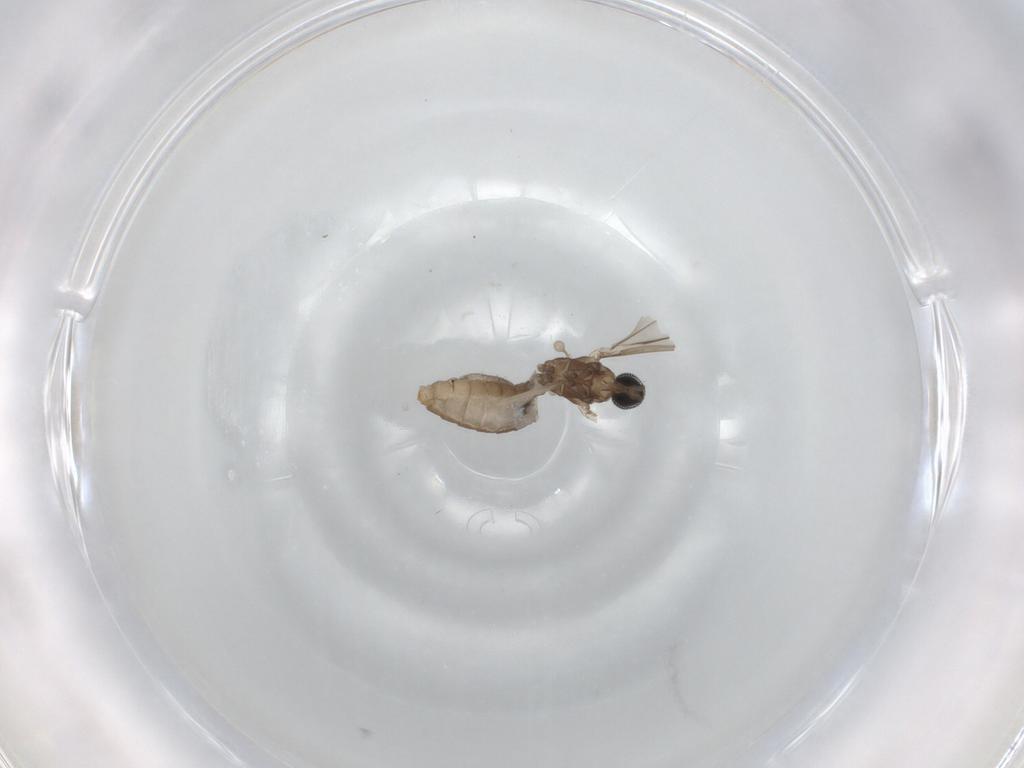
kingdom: Animalia
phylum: Arthropoda
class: Insecta
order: Diptera
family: Cecidomyiidae
